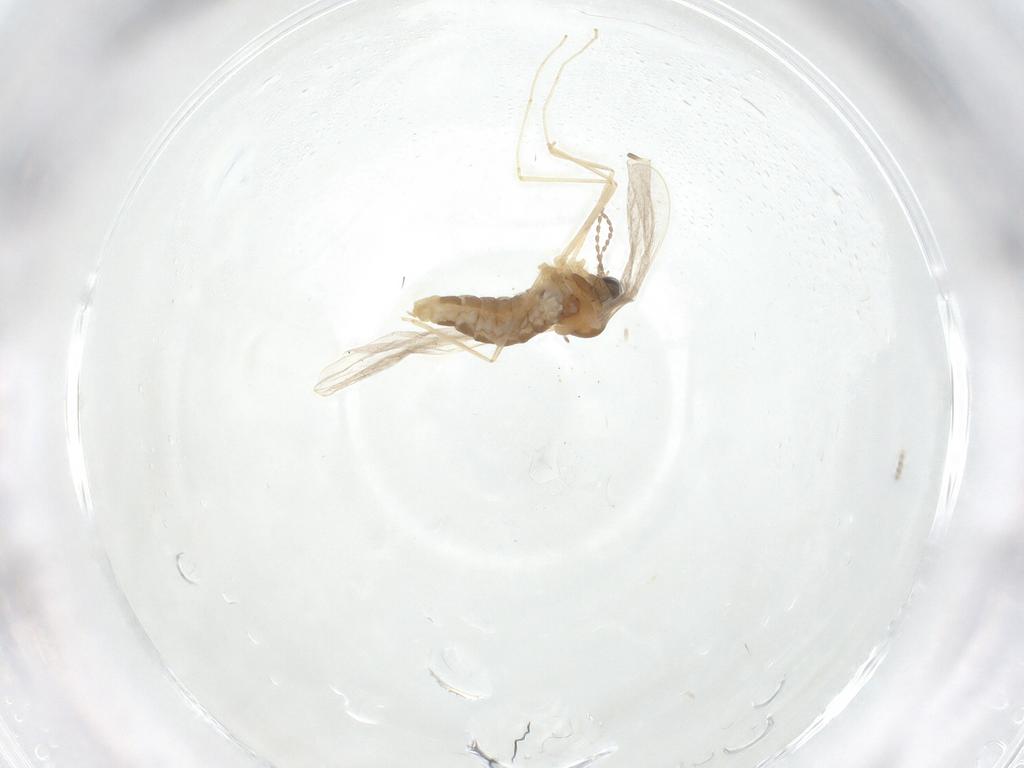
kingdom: Animalia
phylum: Arthropoda
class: Insecta
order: Diptera
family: Cecidomyiidae
